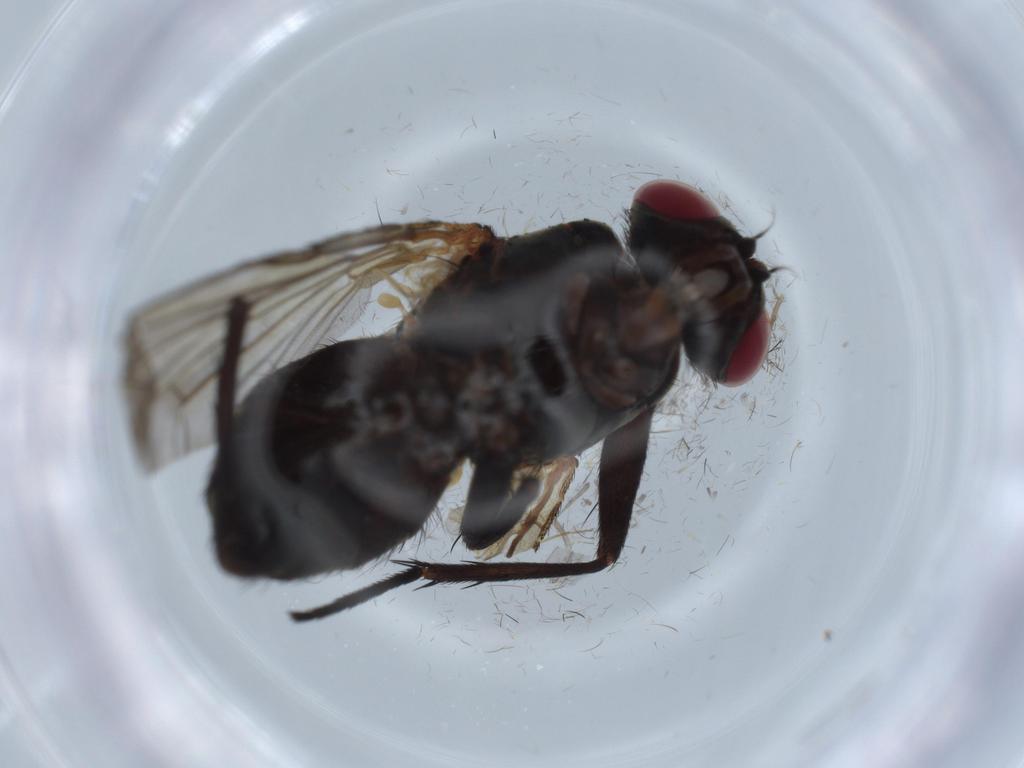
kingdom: Animalia
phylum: Arthropoda
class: Insecta
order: Diptera
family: Calliphoridae
